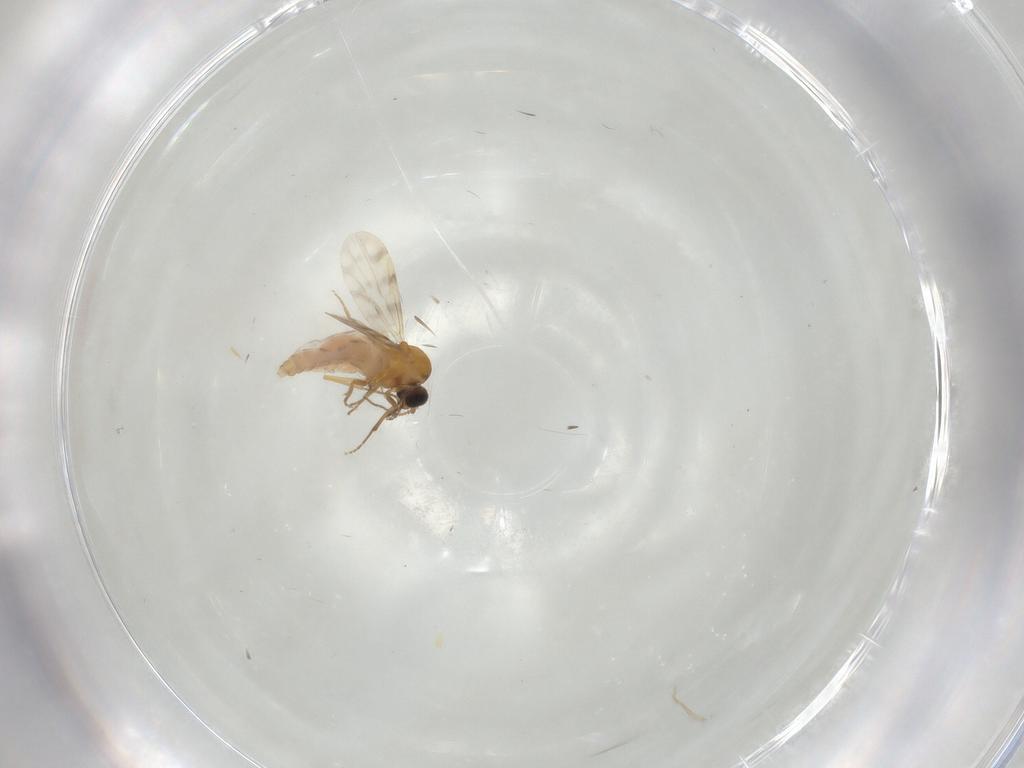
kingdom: Animalia
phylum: Arthropoda
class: Insecta
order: Diptera
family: Ceratopogonidae
